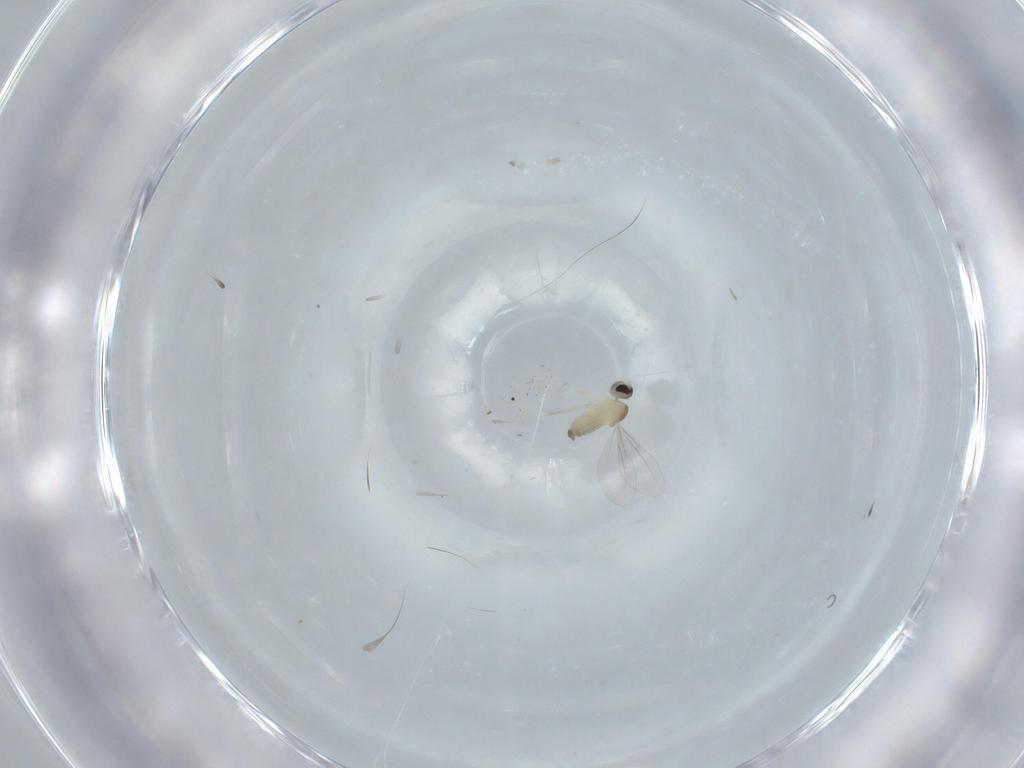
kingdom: Animalia
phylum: Arthropoda
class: Insecta
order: Diptera
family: Cecidomyiidae
